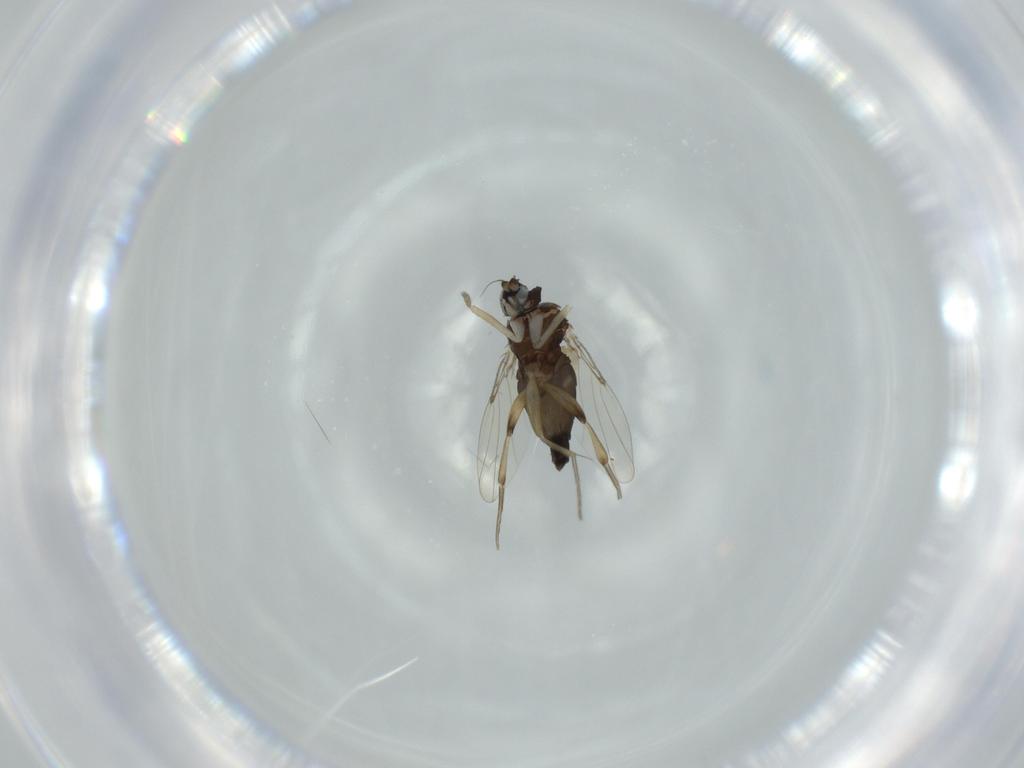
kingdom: Animalia
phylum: Arthropoda
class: Insecta
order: Diptera
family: Phoridae
